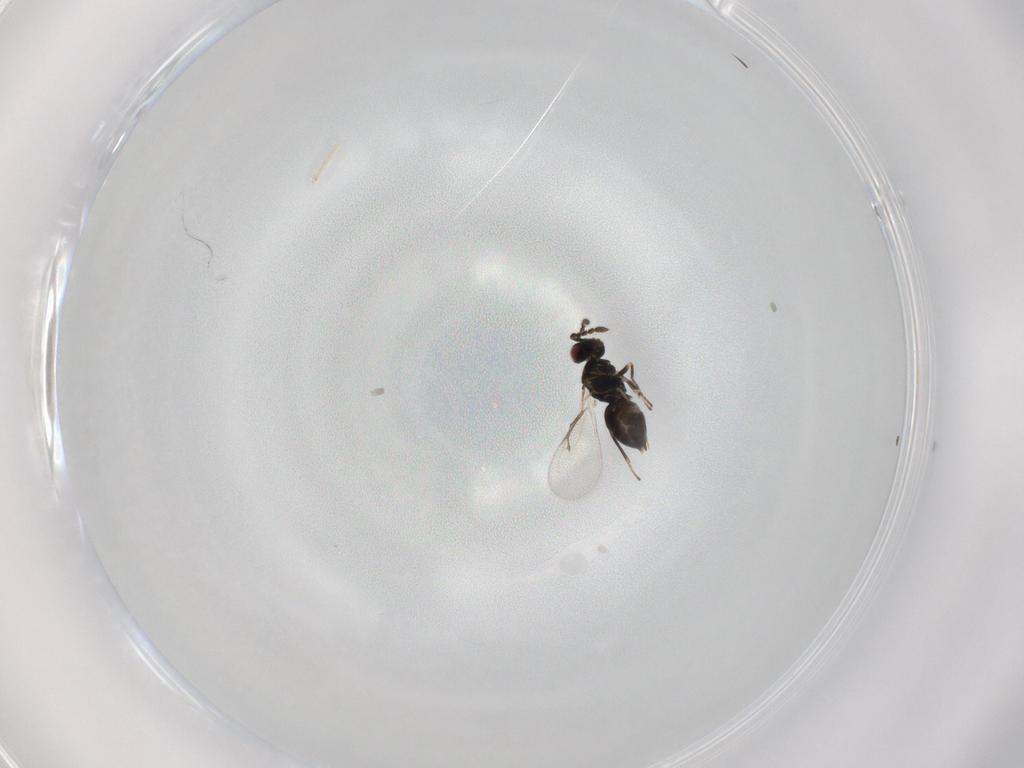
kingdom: Animalia
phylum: Arthropoda
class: Insecta
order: Hymenoptera
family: Eulophidae
